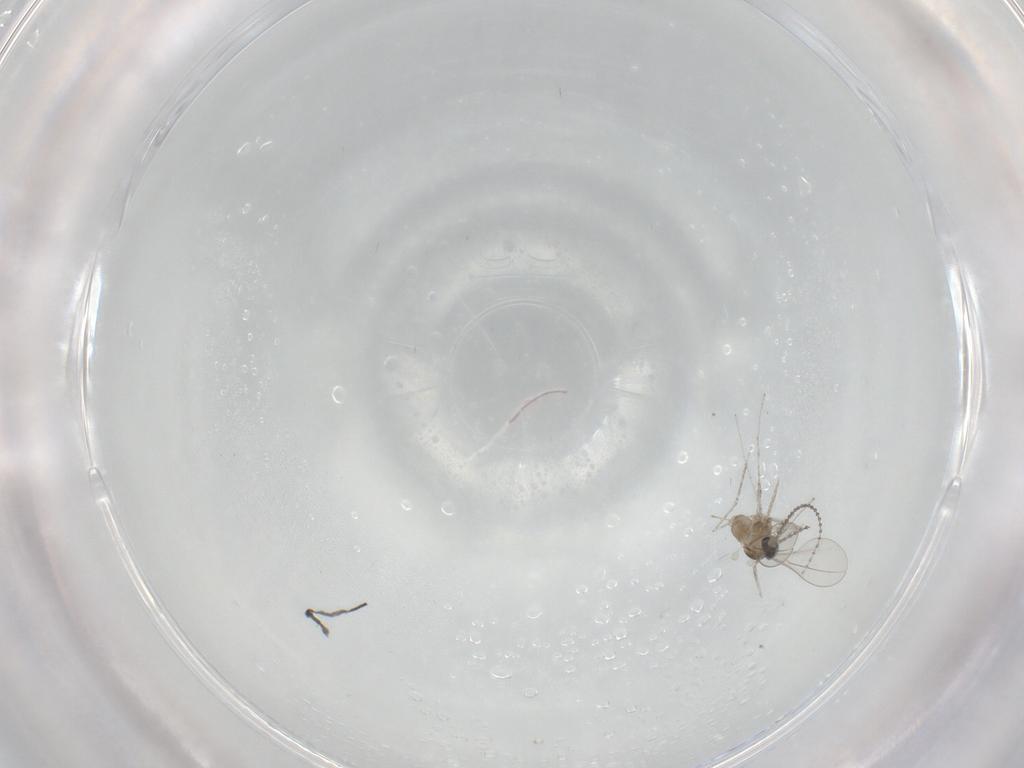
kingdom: Animalia
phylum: Arthropoda
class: Insecta
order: Diptera
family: Cecidomyiidae
